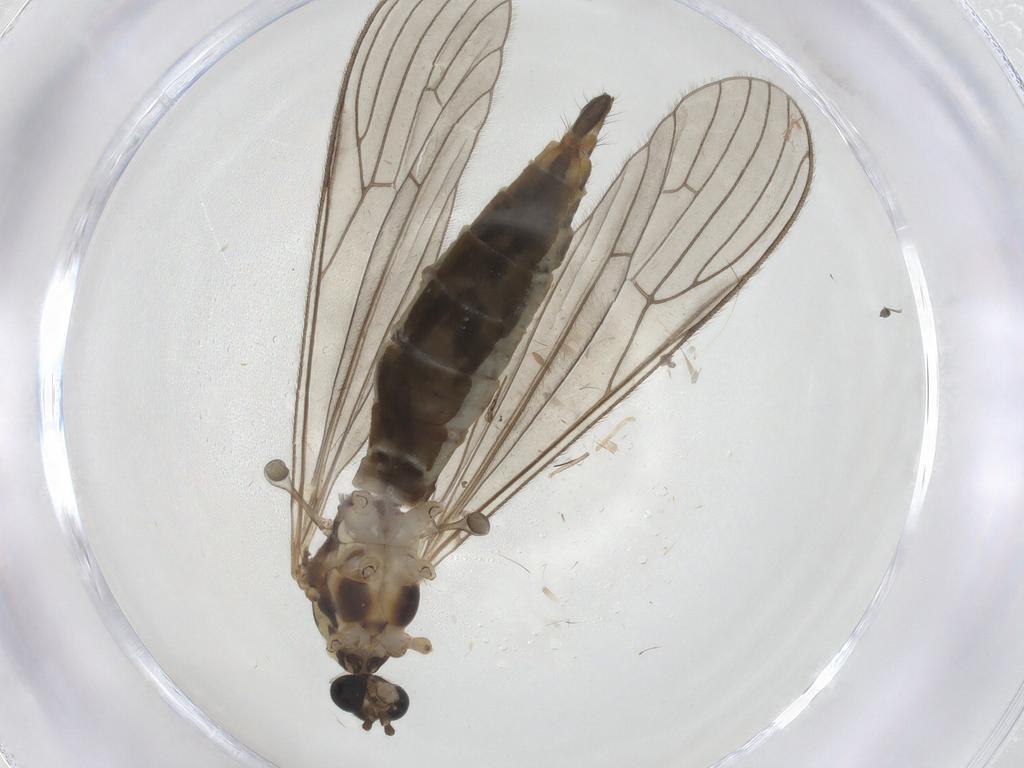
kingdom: Animalia
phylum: Arthropoda
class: Insecta
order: Diptera
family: Limoniidae
